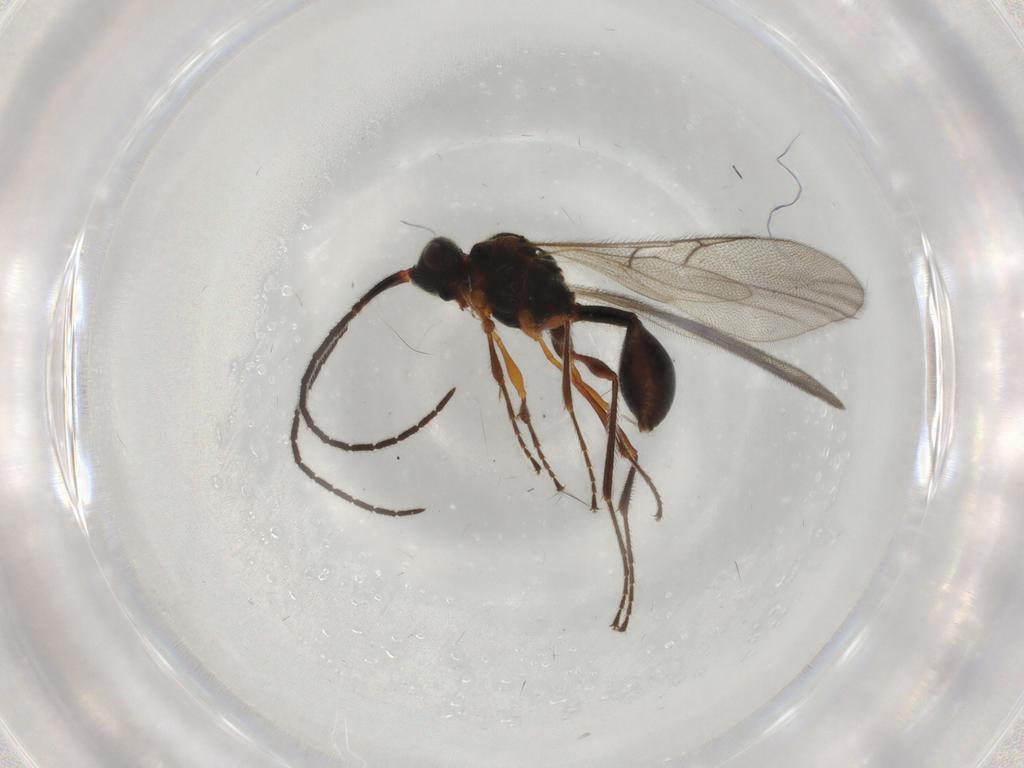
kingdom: Animalia
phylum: Arthropoda
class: Insecta
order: Hymenoptera
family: Diapriidae
